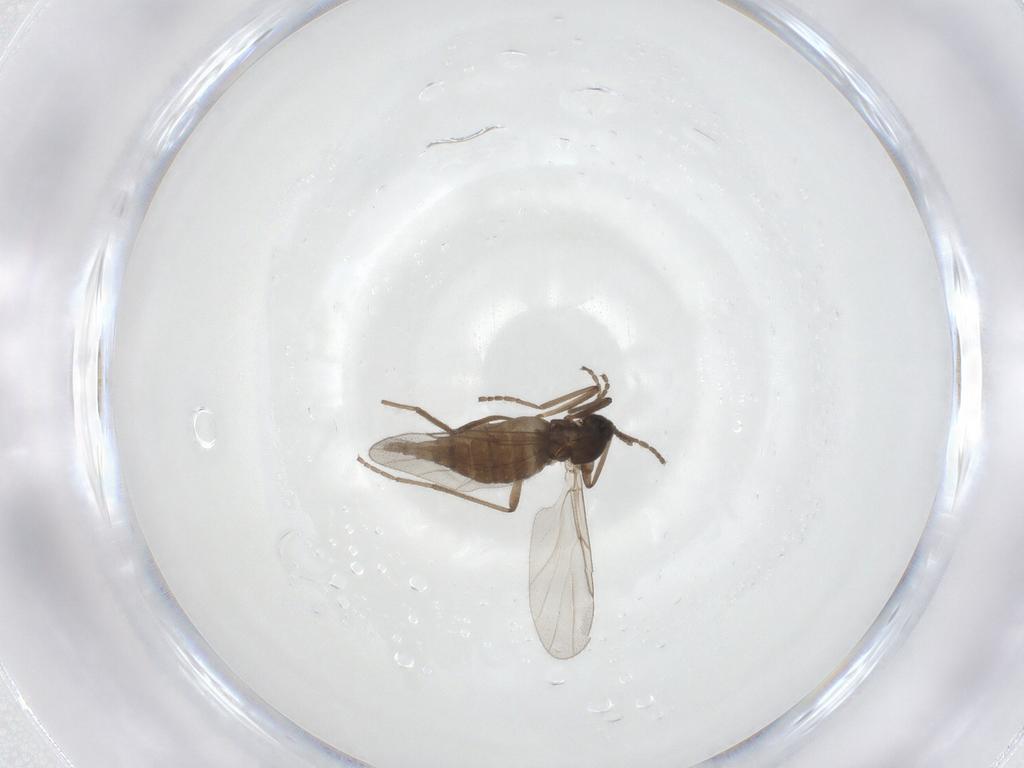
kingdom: Animalia
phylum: Arthropoda
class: Insecta
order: Diptera
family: Cecidomyiidae
